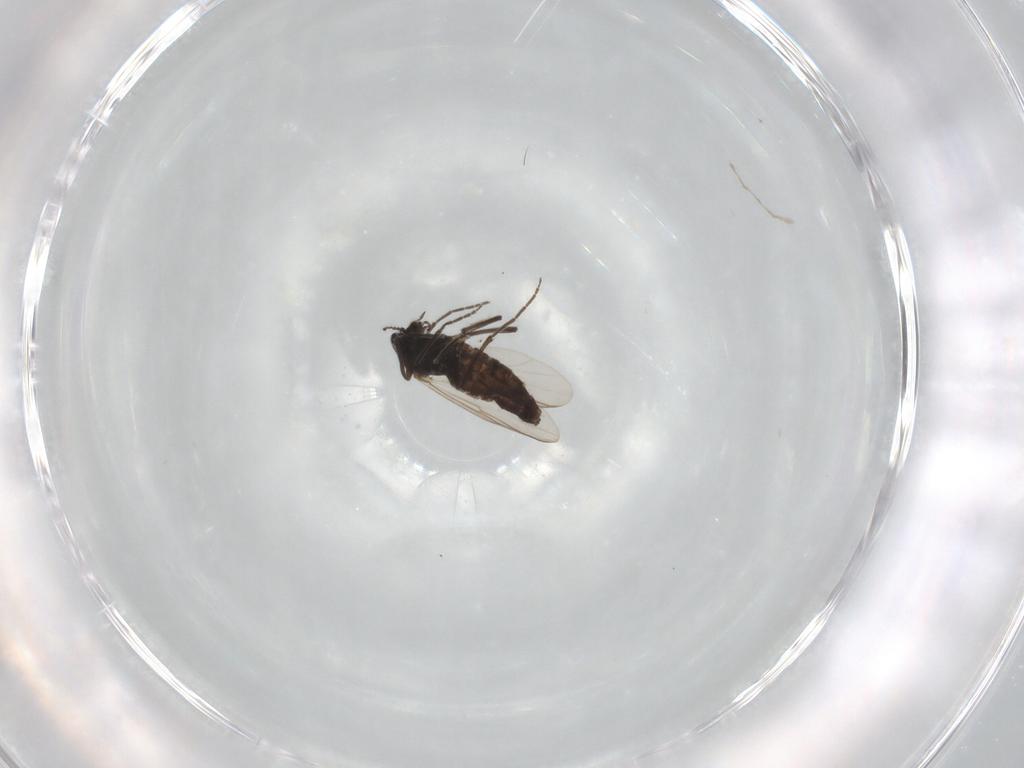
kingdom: Animalia
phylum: Arthropoda
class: Insecta
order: Diptera
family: Chironomidae
